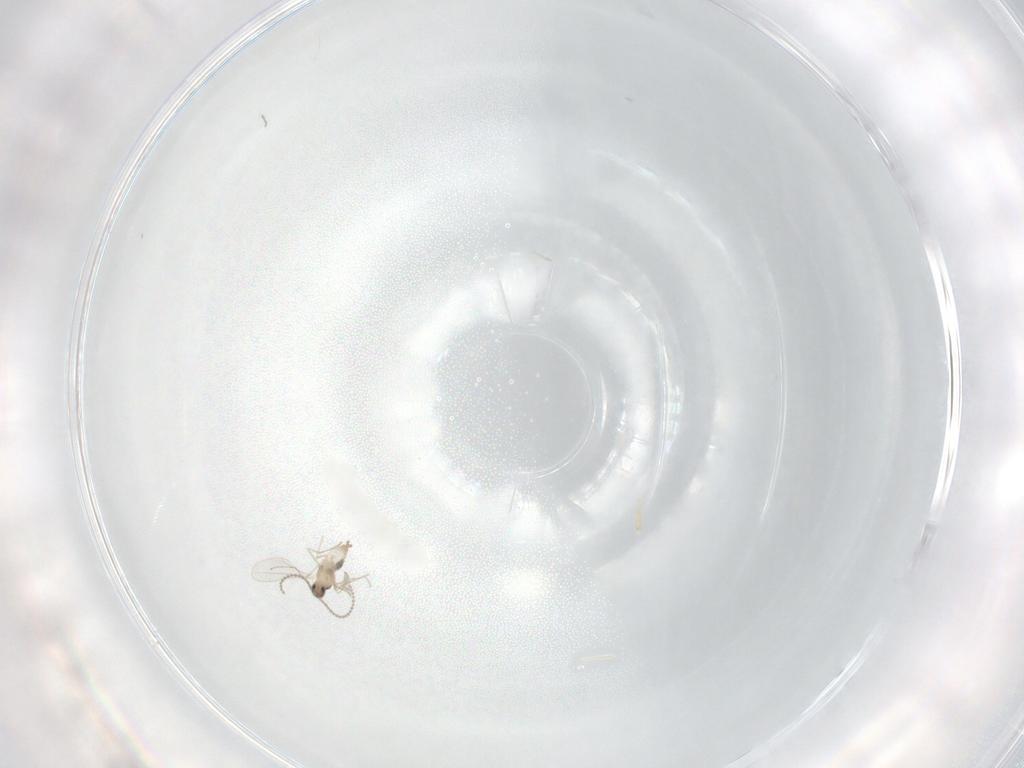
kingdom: Animalia
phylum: Arthropoda
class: Insecta
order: Diptera
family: Cecidomyiidae
